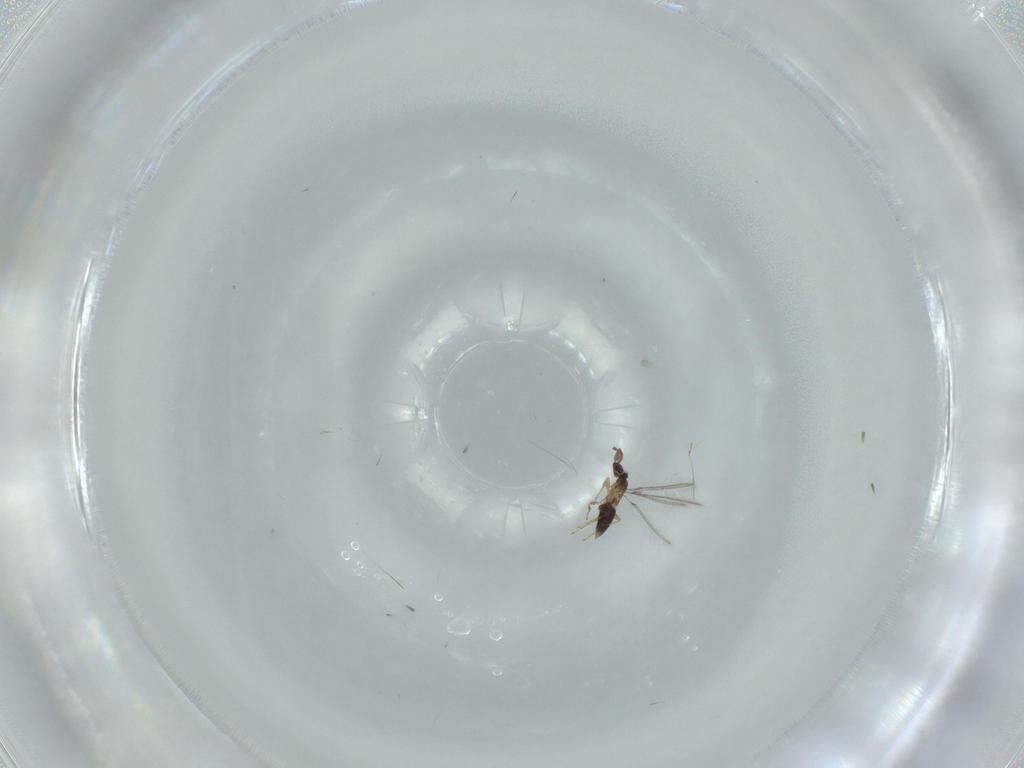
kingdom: Animalia
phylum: Arthropoda
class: Insecta
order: Hymenoptera
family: Mymaridae
